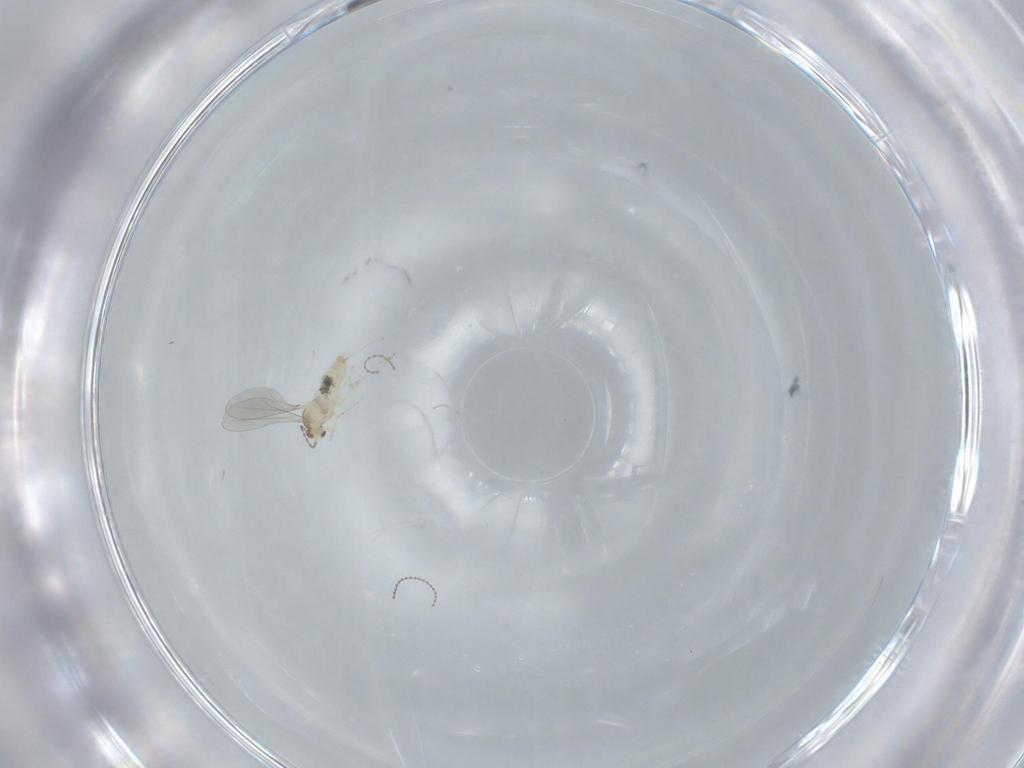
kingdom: Animalia
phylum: Arthropoda
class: Insecta
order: Diptera
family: Cecidomyiidae
